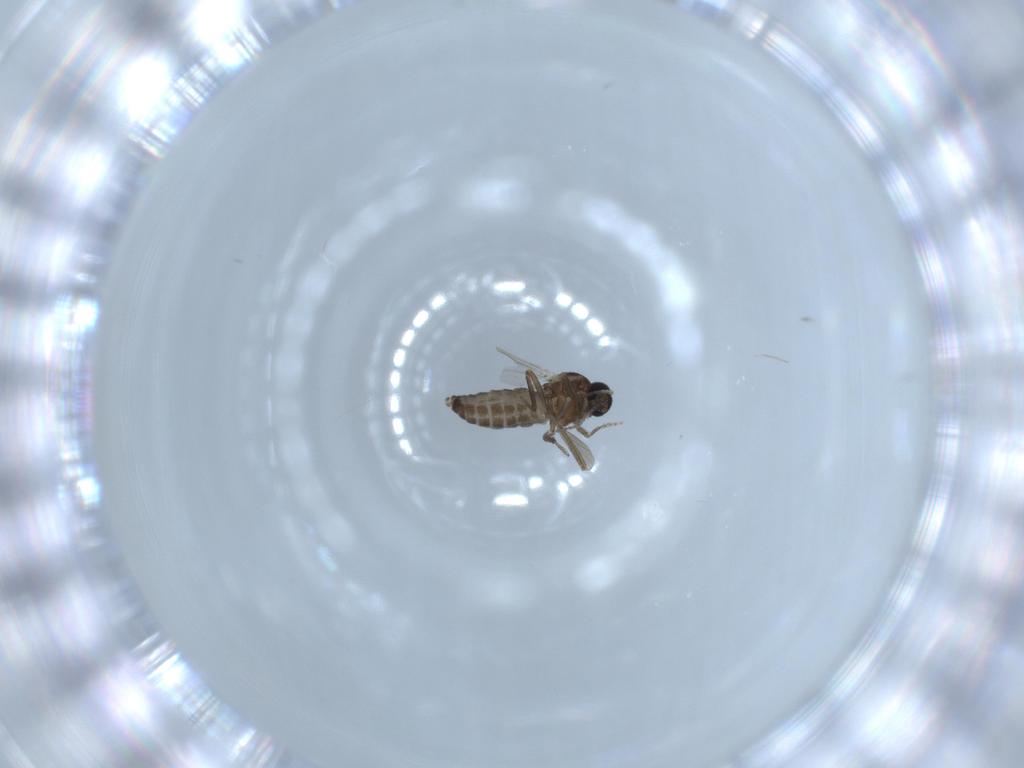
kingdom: Animalia
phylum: Arthropoda
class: Insecta
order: Diptera
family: Ceratopogonidae
